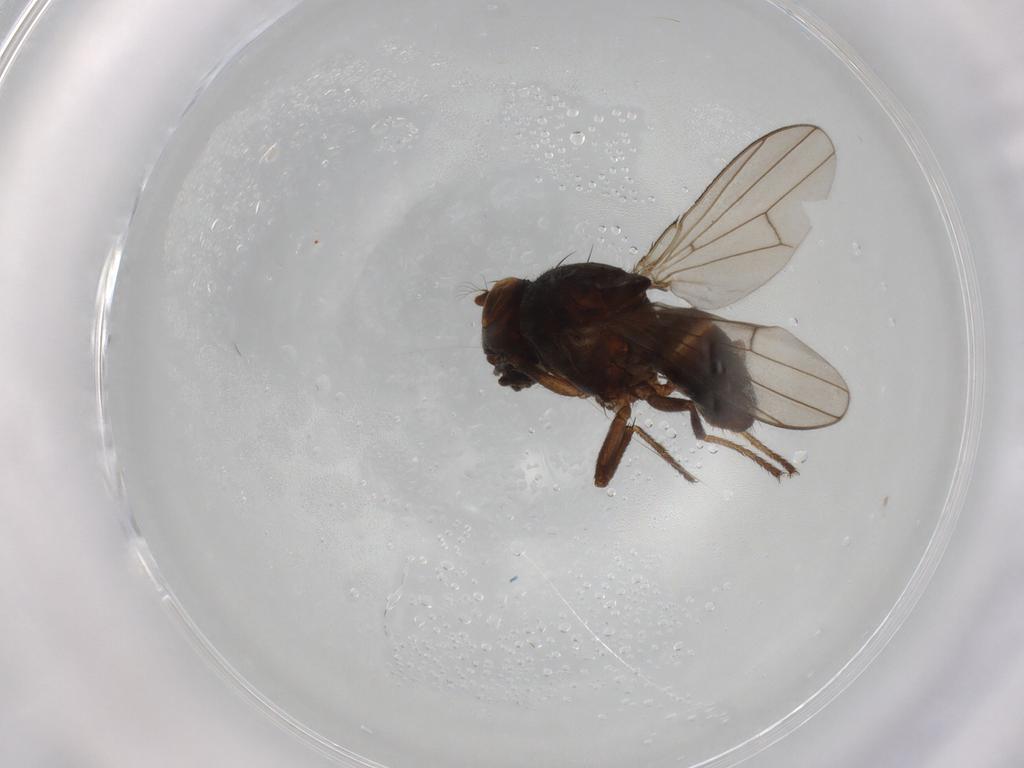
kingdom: Animalia
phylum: Arthropoda
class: Insecta
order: Diptera
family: Ephydridae
